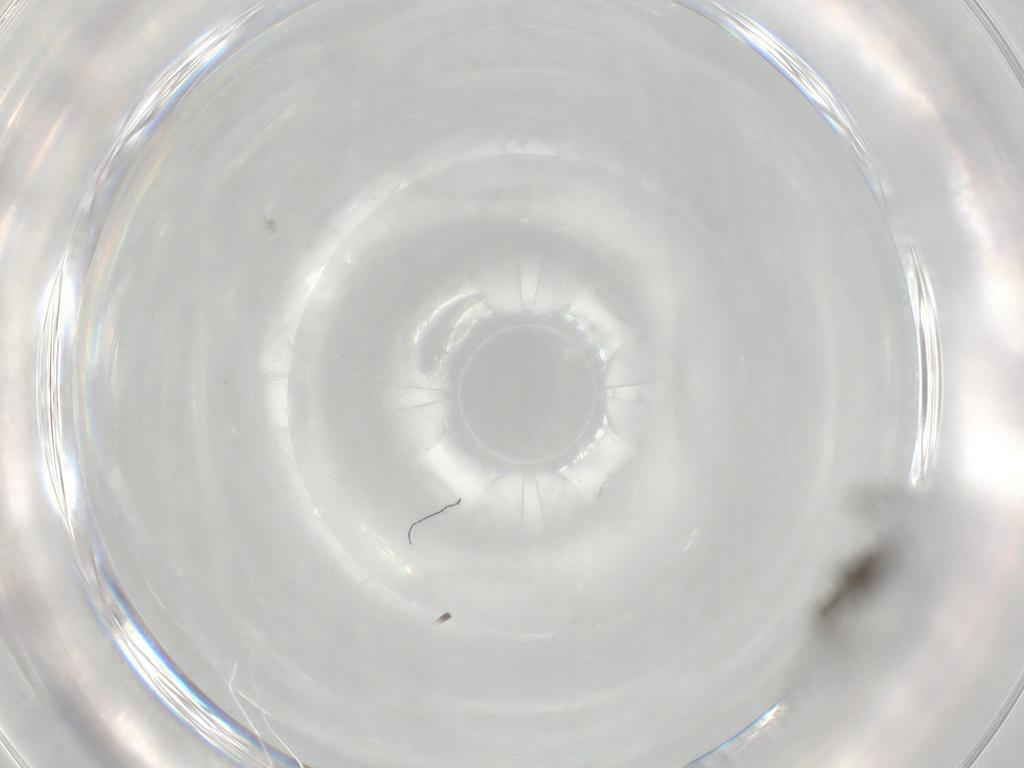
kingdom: Animalia
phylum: Arthropoda
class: Insecta
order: Diptera
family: Sciaridae
